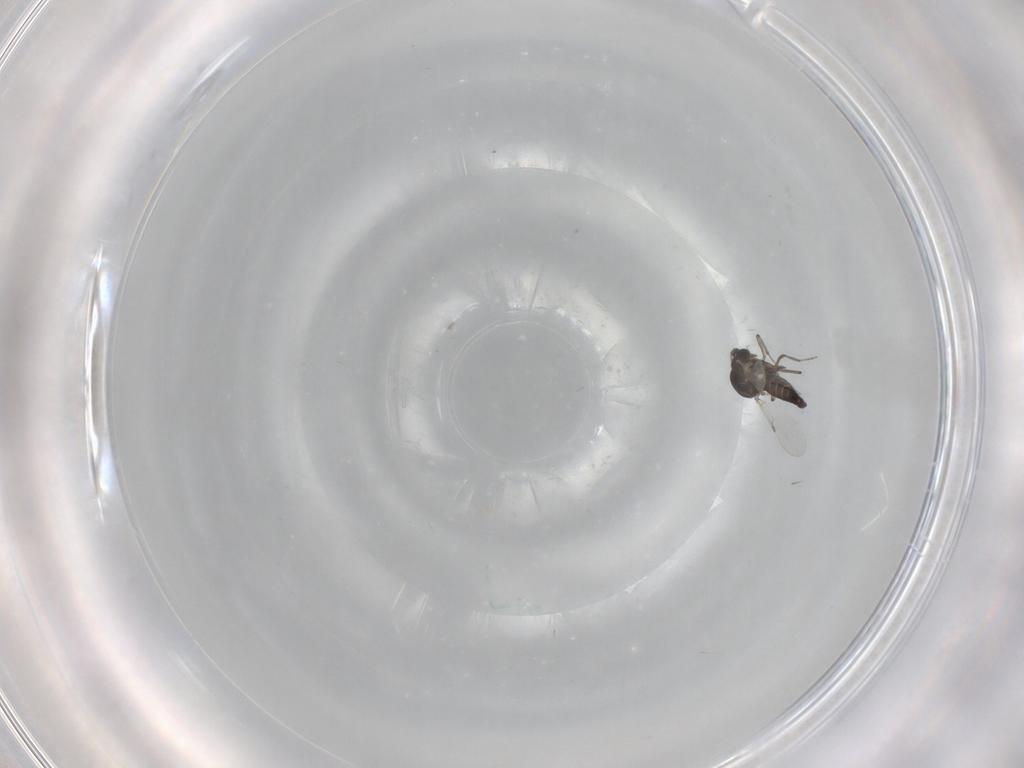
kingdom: Animalia
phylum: Arthropoda
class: Insecta
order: Diptera
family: Ceratopogonidae
